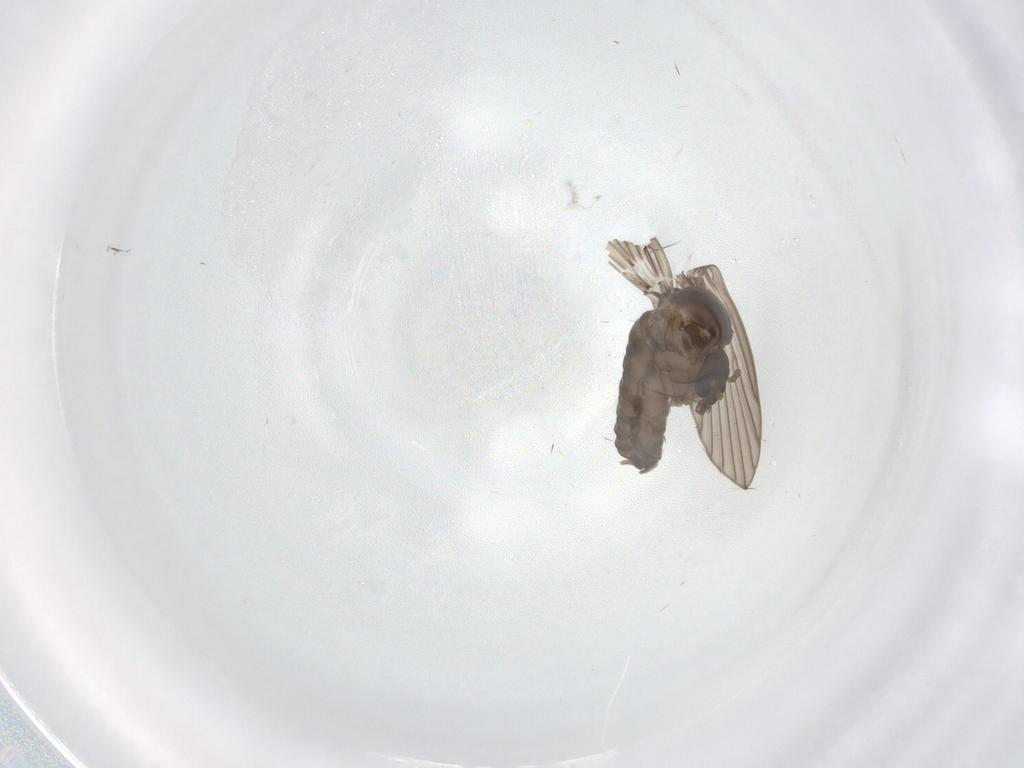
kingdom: Animalia
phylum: Arthropoda
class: Insecta
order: Diptera
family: Psychodidae
